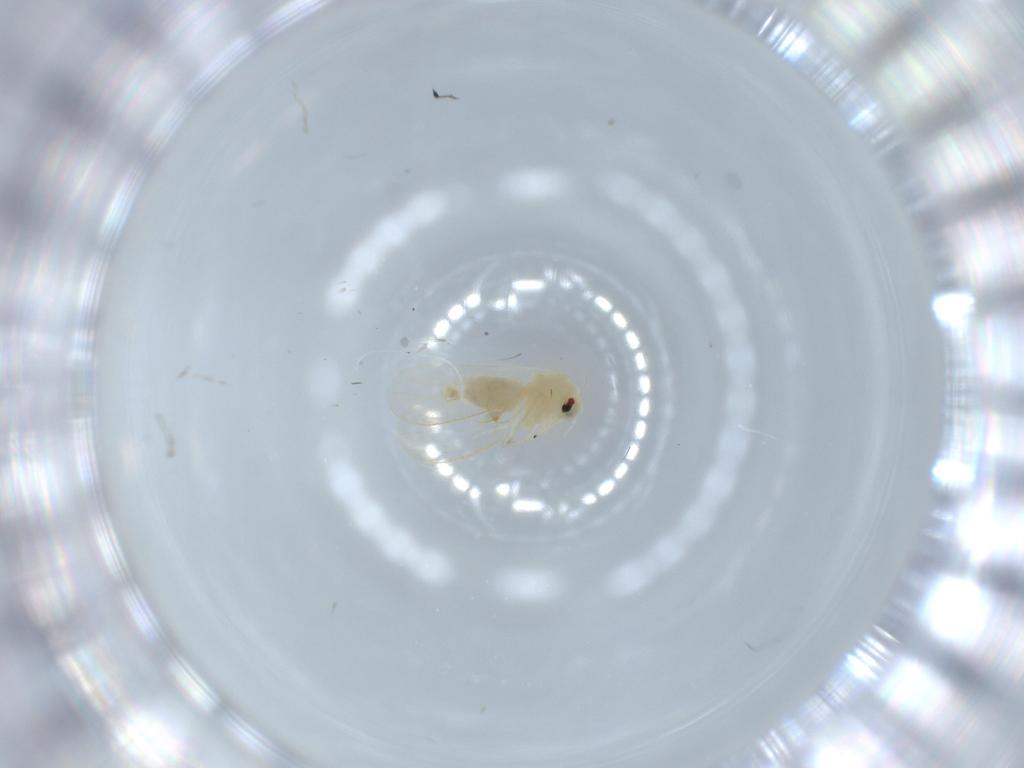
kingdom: Animalia
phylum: Arthropoda
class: Insecta
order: Hemiptera
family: Aleyrodidae
